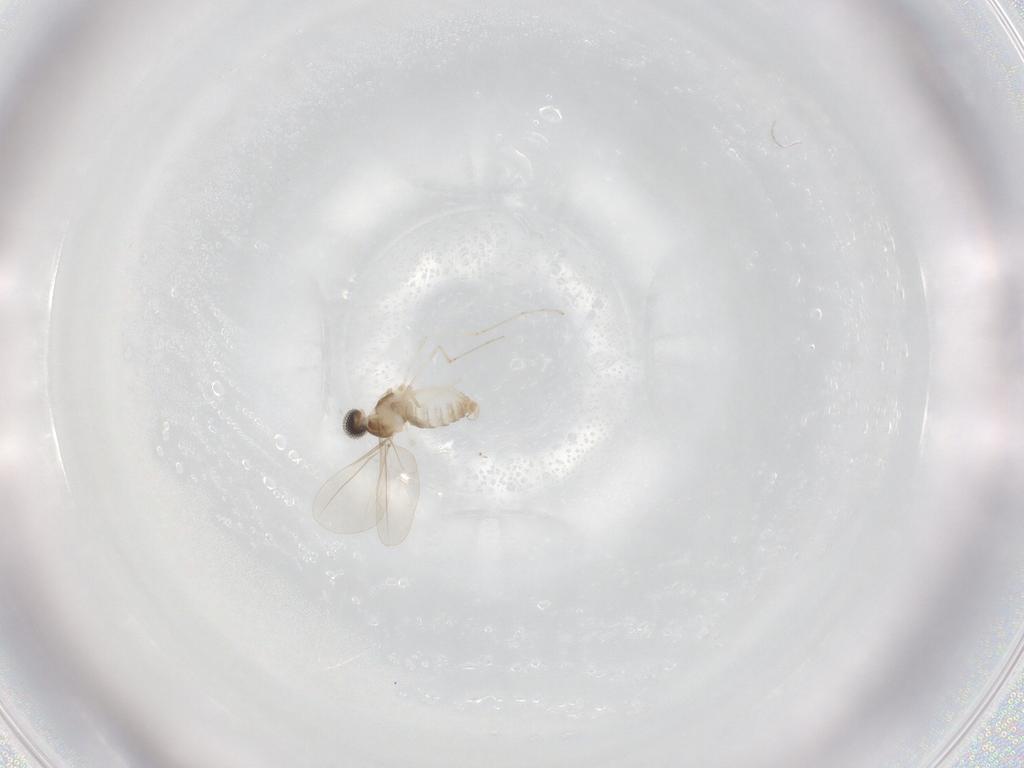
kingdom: Animalia
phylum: Arthropoda
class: Insecta
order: Diptera
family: Cecidomyiidae
